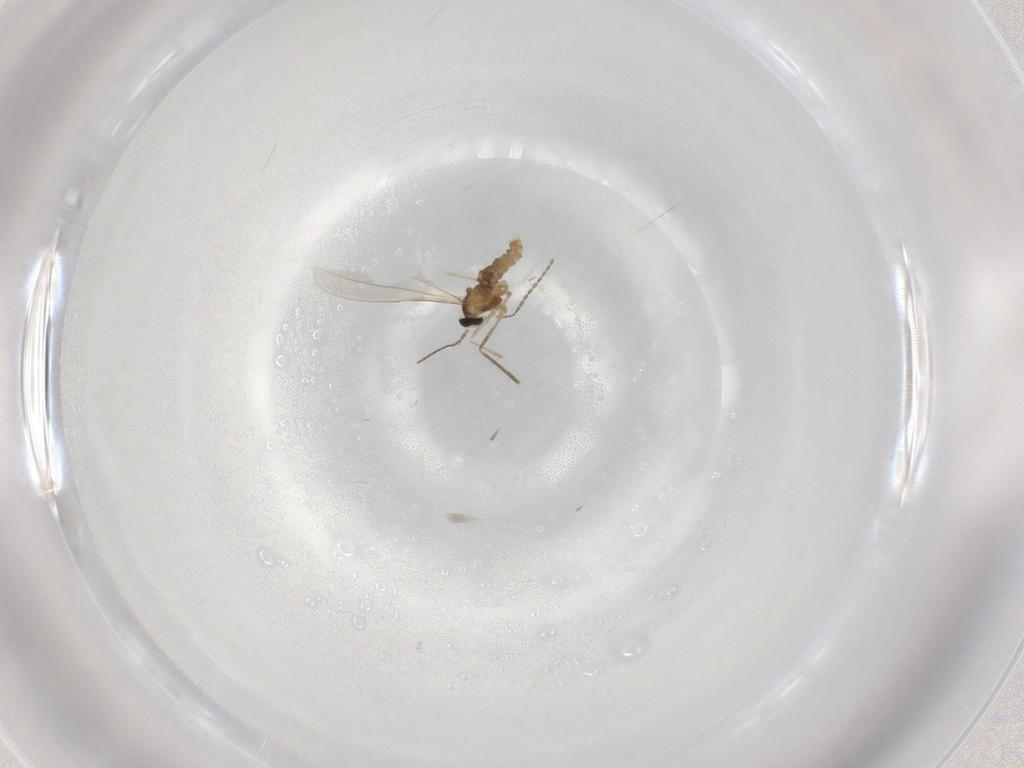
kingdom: Animalia
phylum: Arthropoda
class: Insecta
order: Diptera
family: Cecidomyiidae
